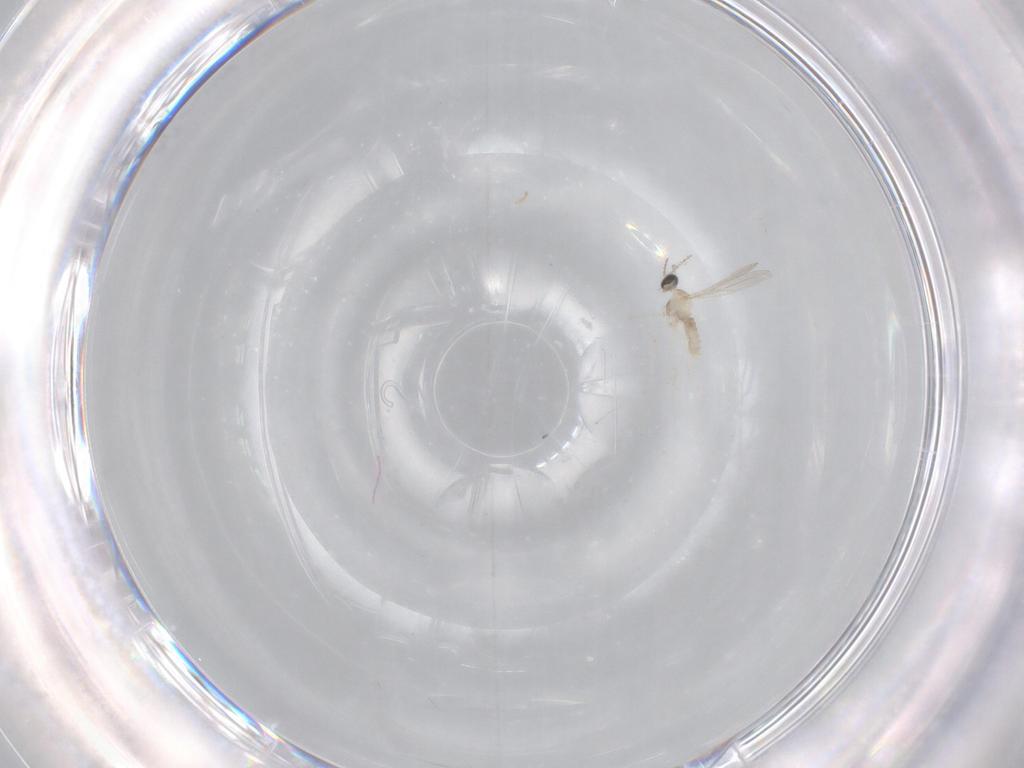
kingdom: Animalia
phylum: Arthropoda
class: Insecta
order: Diptera
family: Cecidomyiidae
